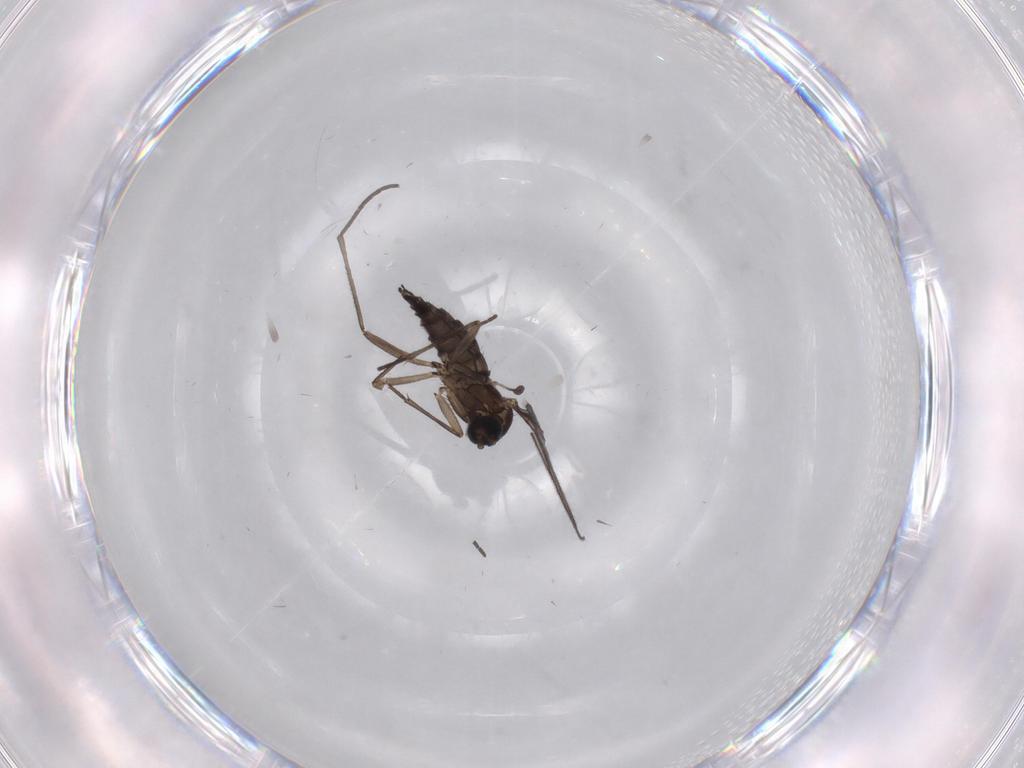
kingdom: Animalia
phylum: Arthropoda
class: Insecta
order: Diptera
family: Sciaridae
